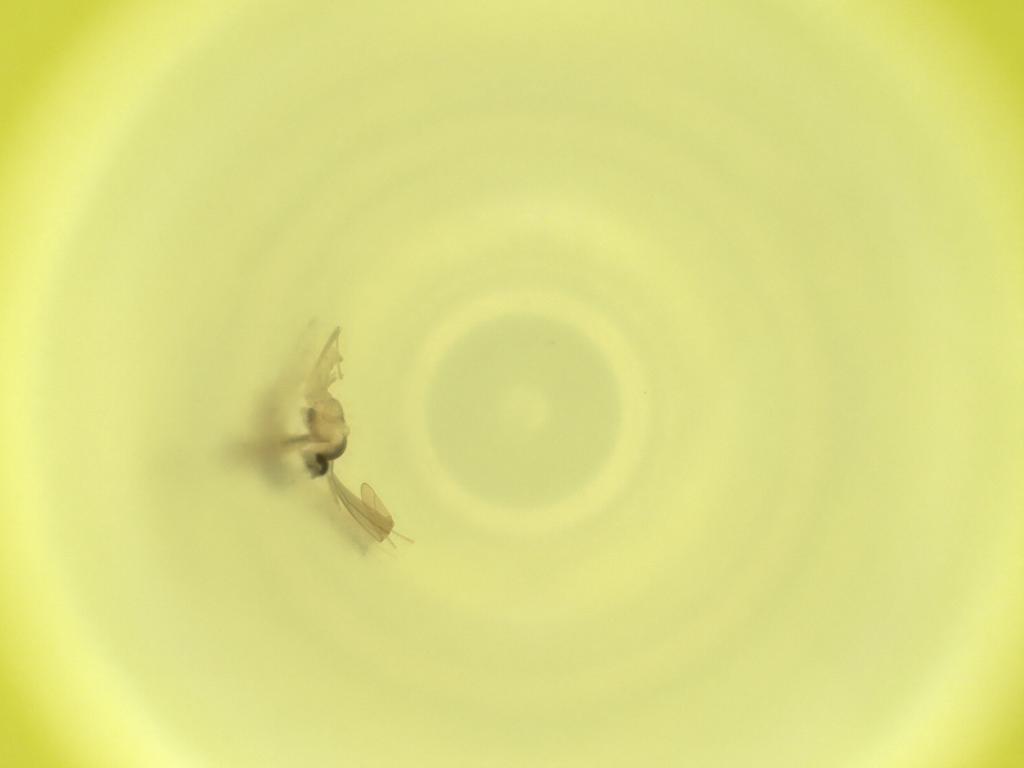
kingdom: Animalia
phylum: Arthropoda
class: Insecta
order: Diptera
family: Cecidomyiidae
